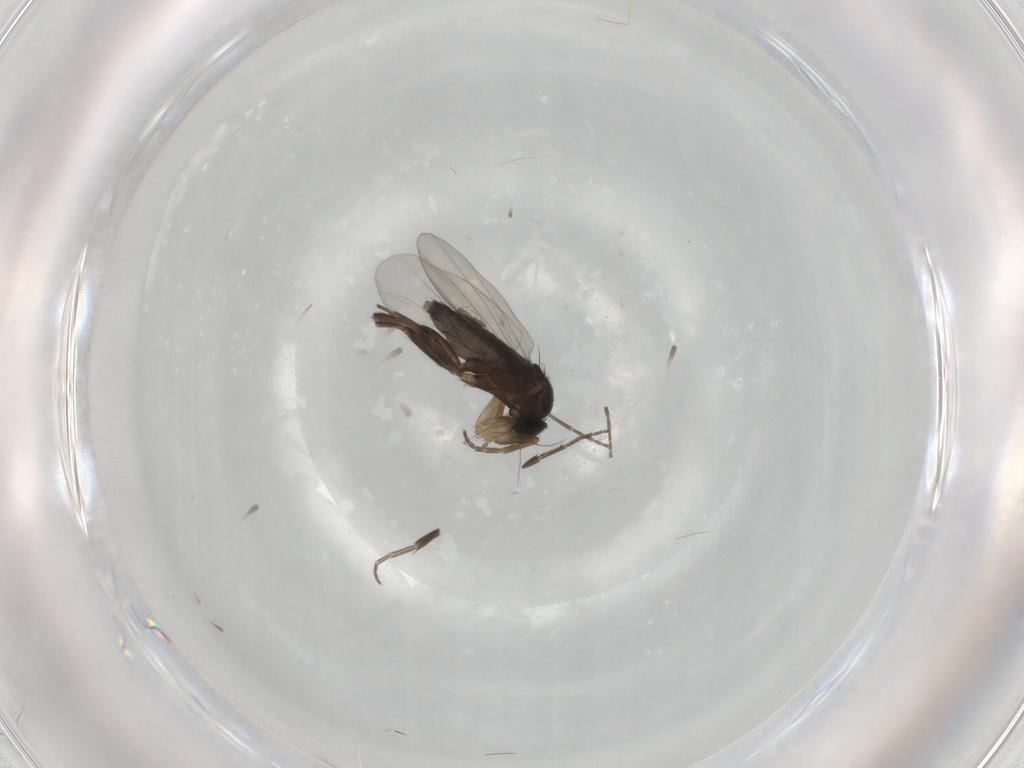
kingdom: Animalia
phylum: Arthropoda
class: Insecta
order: Diptera
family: Phoridae
